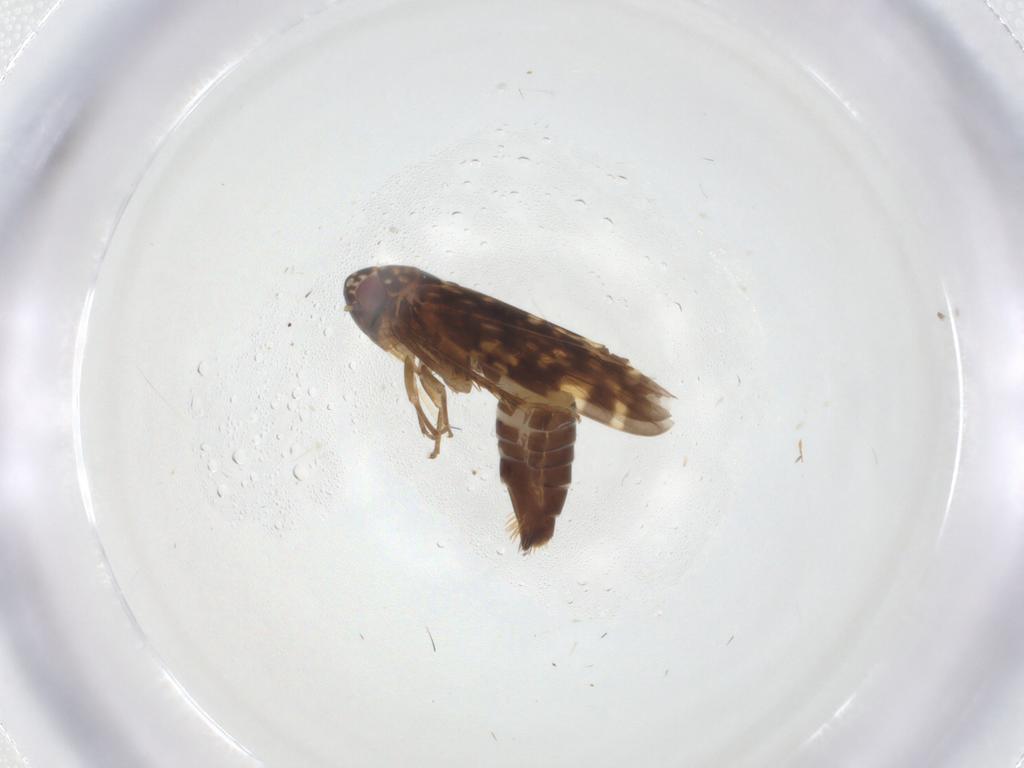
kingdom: Animalia
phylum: Arthropoda
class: Insecta
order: Hemiptera
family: Cicadellidae
